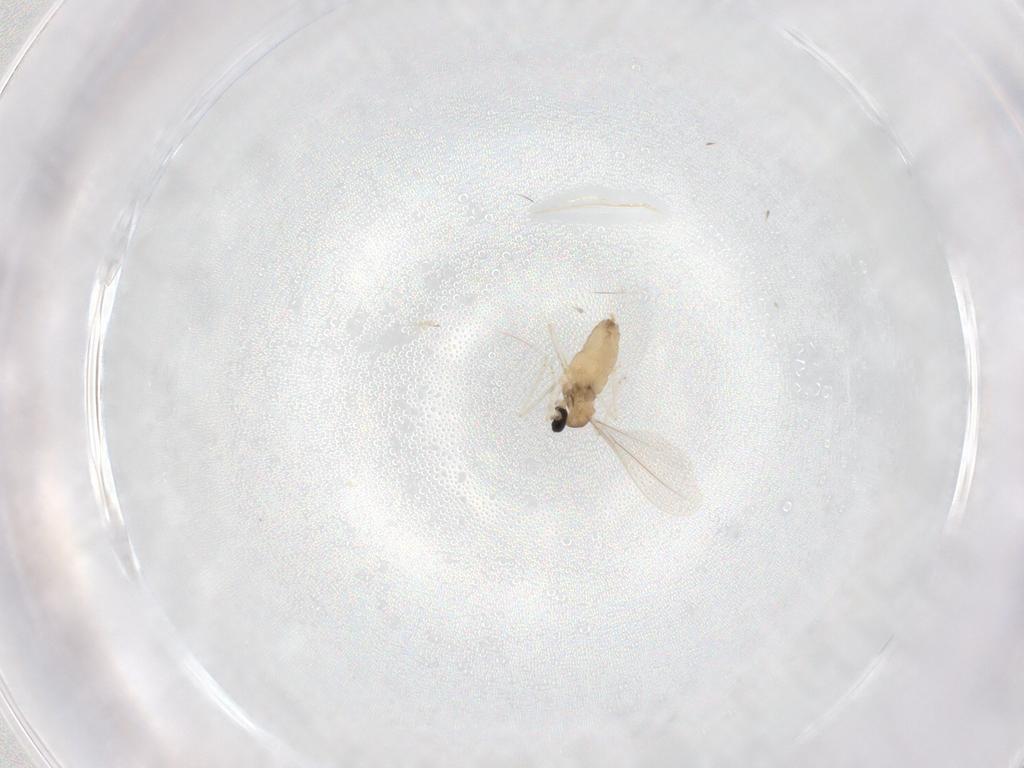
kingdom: Animalia
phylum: Arthropoda
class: Insecta
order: Diptera
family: Cecidomyiidae
